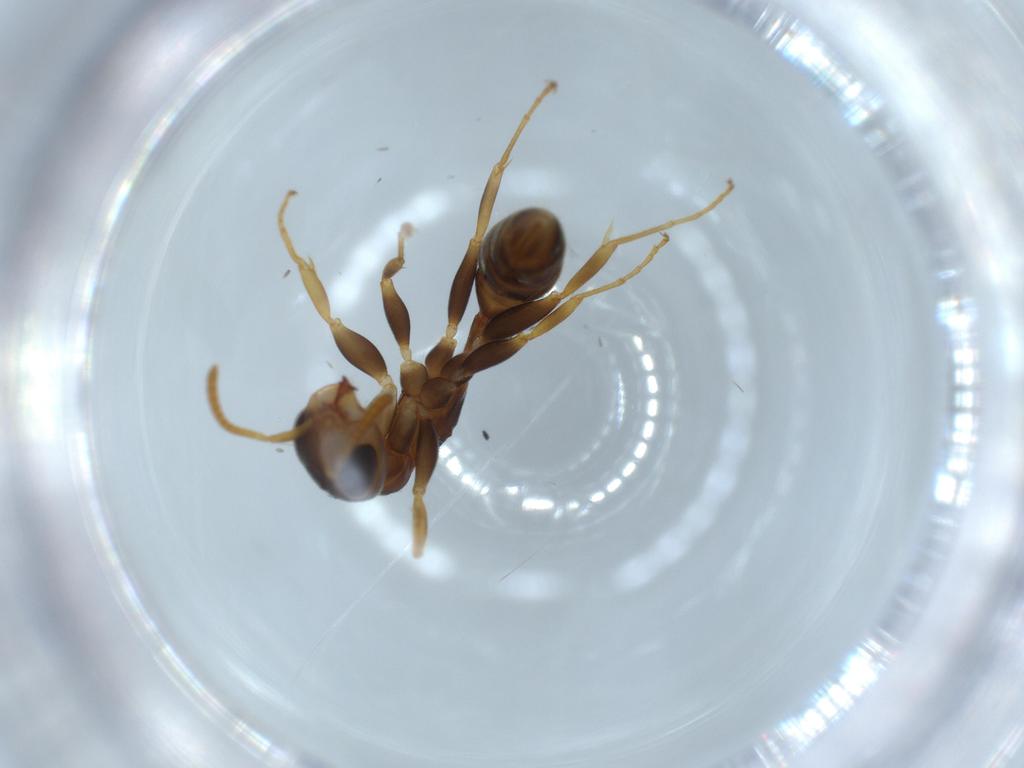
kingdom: Animalia
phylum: Arthropoda
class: Insecta
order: Hymenoptera
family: Formicidae
